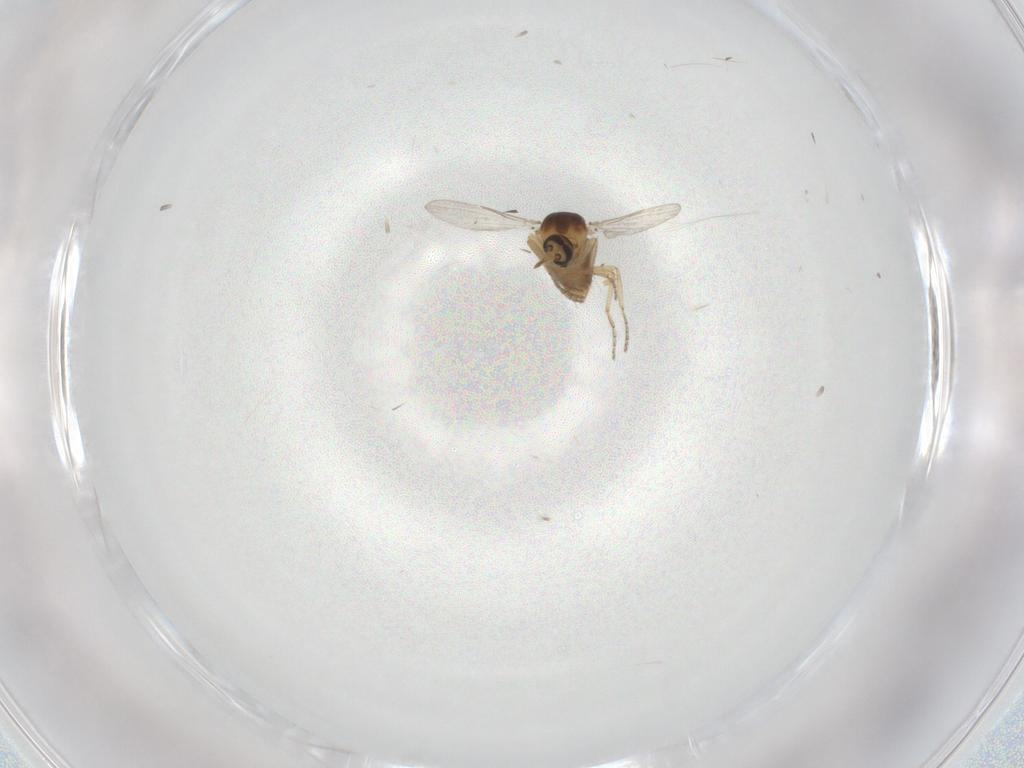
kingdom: Animalia
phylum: Arthropoda
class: Insecta
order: Diptera
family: Ceratopogonidae
